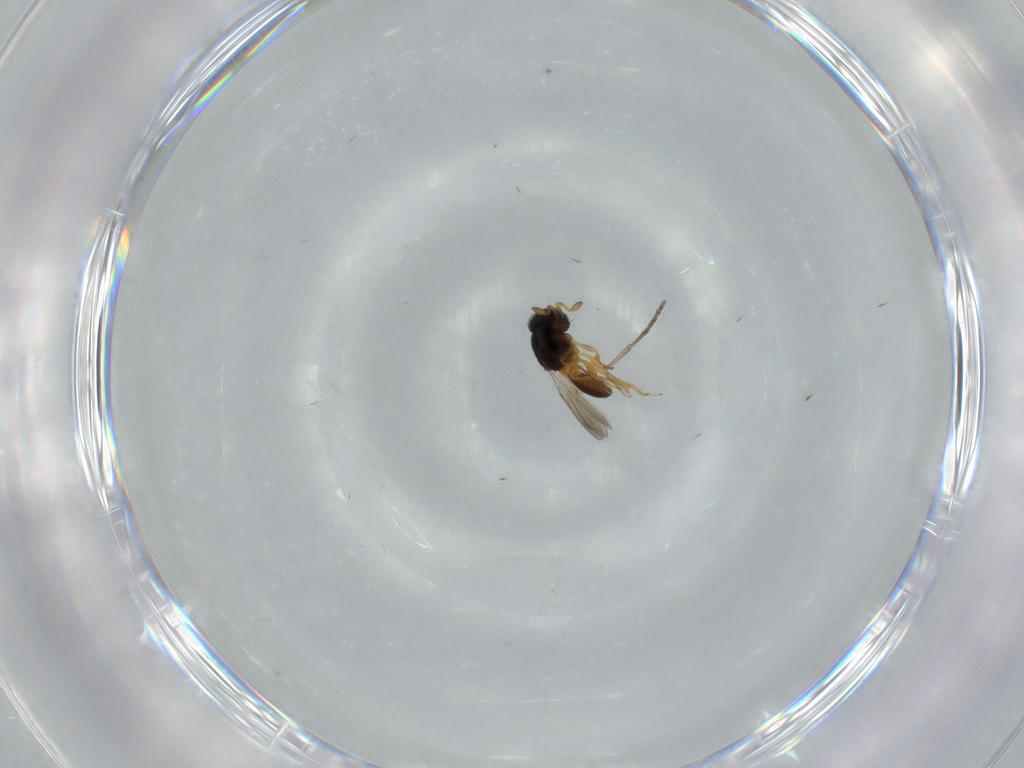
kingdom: Animalia
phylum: Arthropoda
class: Insecta
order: Hymenoptera
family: Scelionidae
